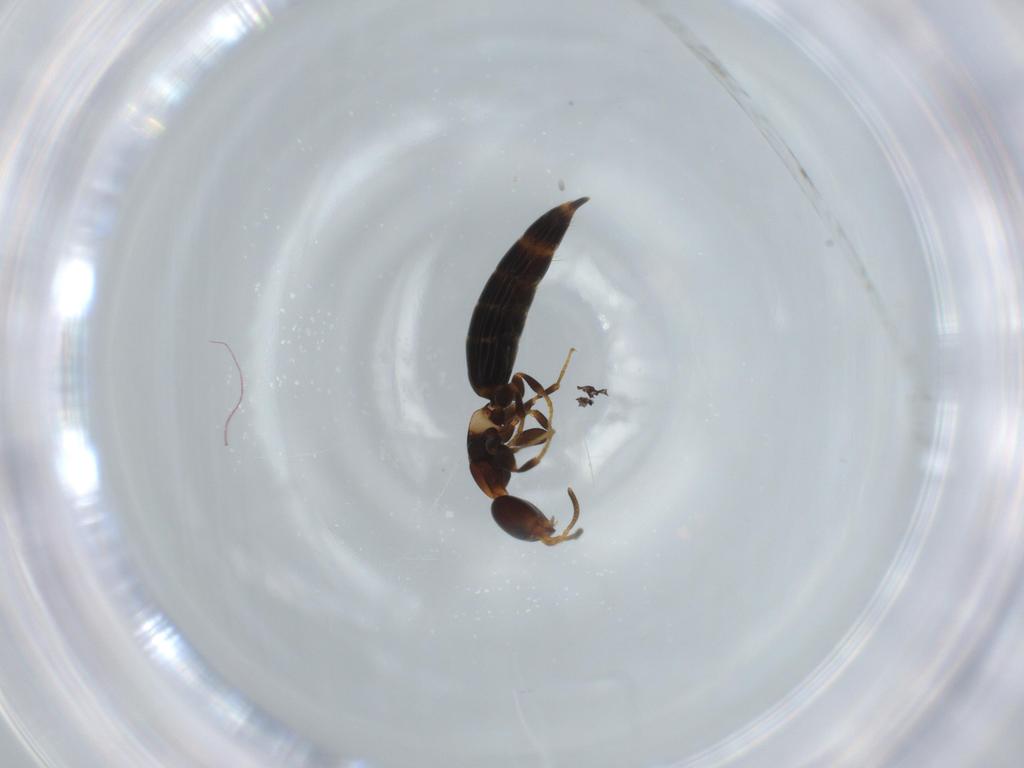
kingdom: Animalia
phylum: Arthropoda
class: Insecta
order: Hymenoptera
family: Bethylidae
